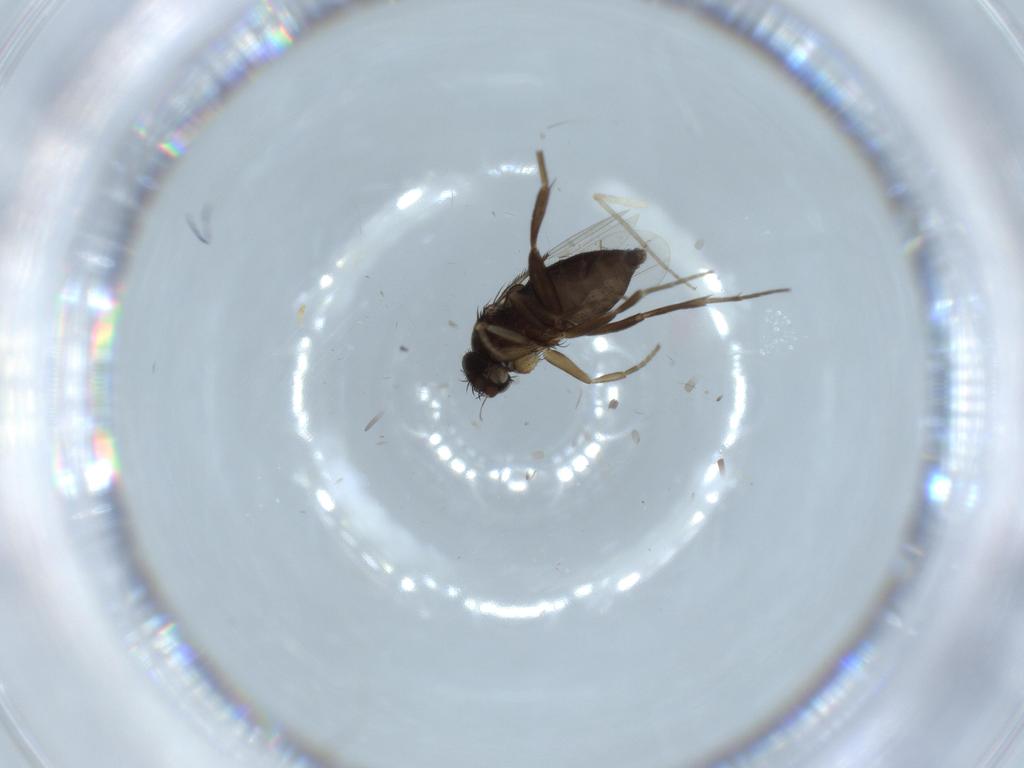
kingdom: Animalia
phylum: Arthropoda
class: Insecta
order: Diptera
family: Chironomidae
